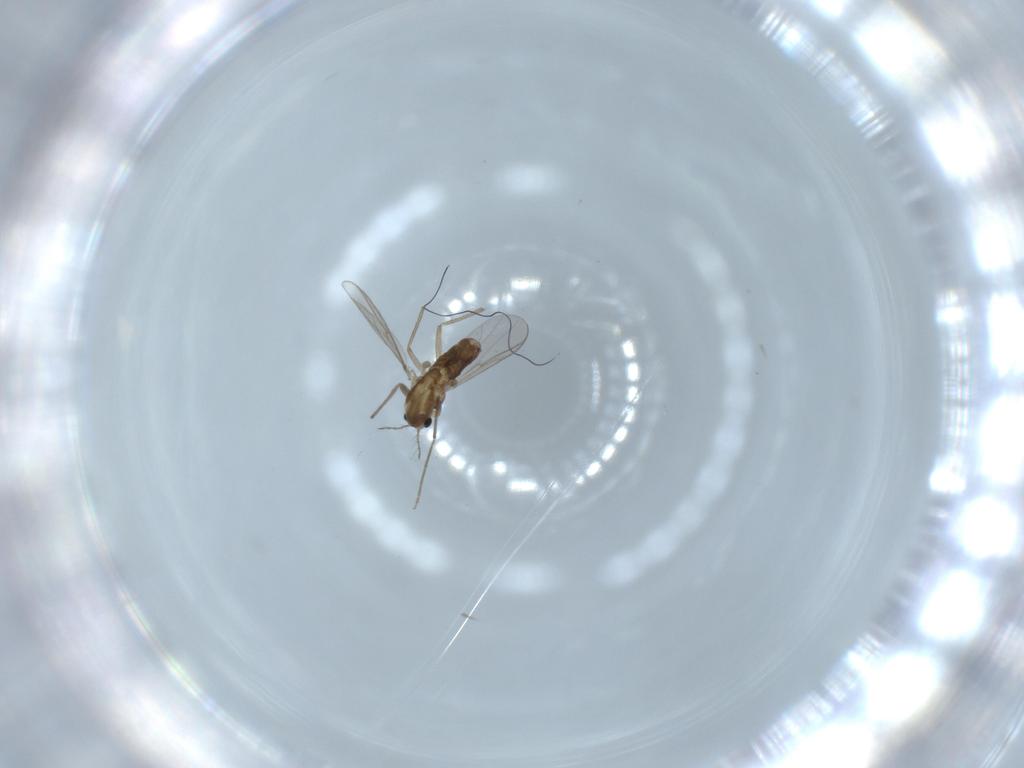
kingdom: Animalia
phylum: Arthropoda
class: Insecta
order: Diptera
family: Chironomidae
